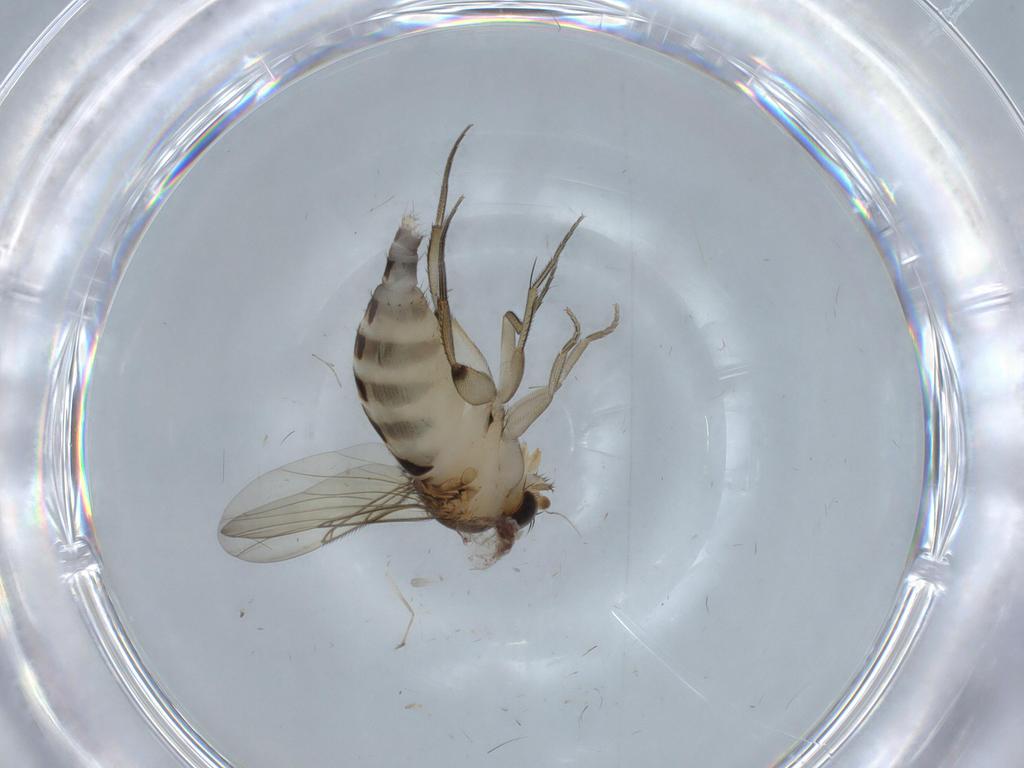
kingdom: Animalia
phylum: Arthropoda
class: Insecta
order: Diptera
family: Chironomidae
